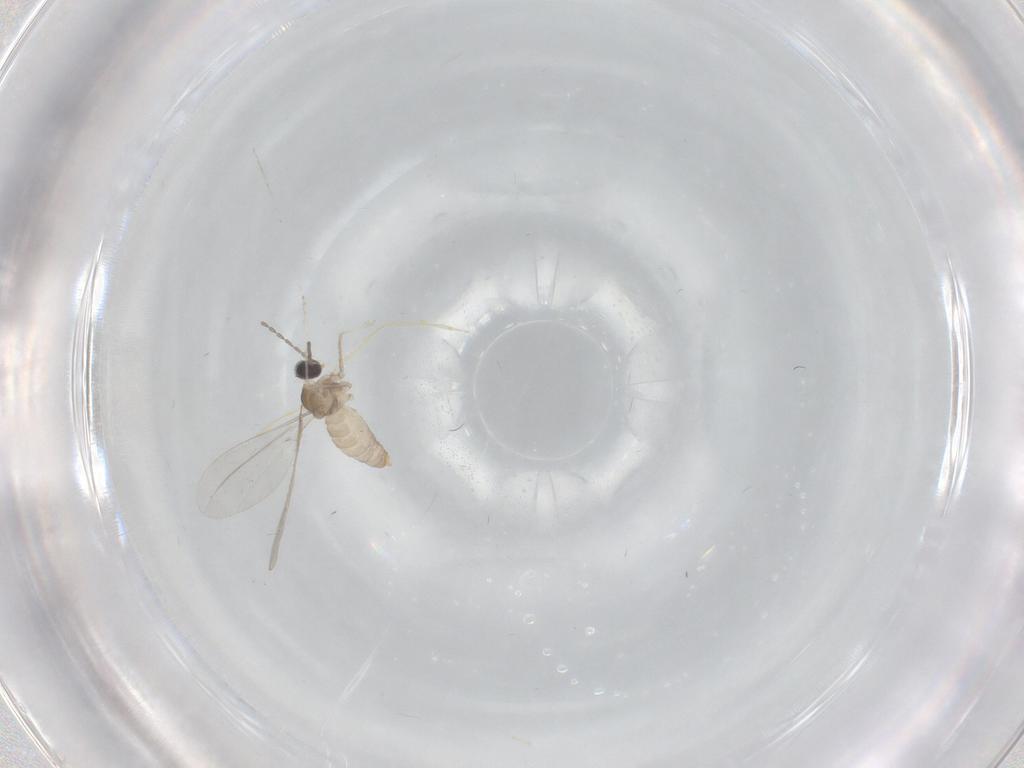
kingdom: Animalia
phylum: Arthropoda
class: Insecta
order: Diptera
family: Cecidomyiidae
